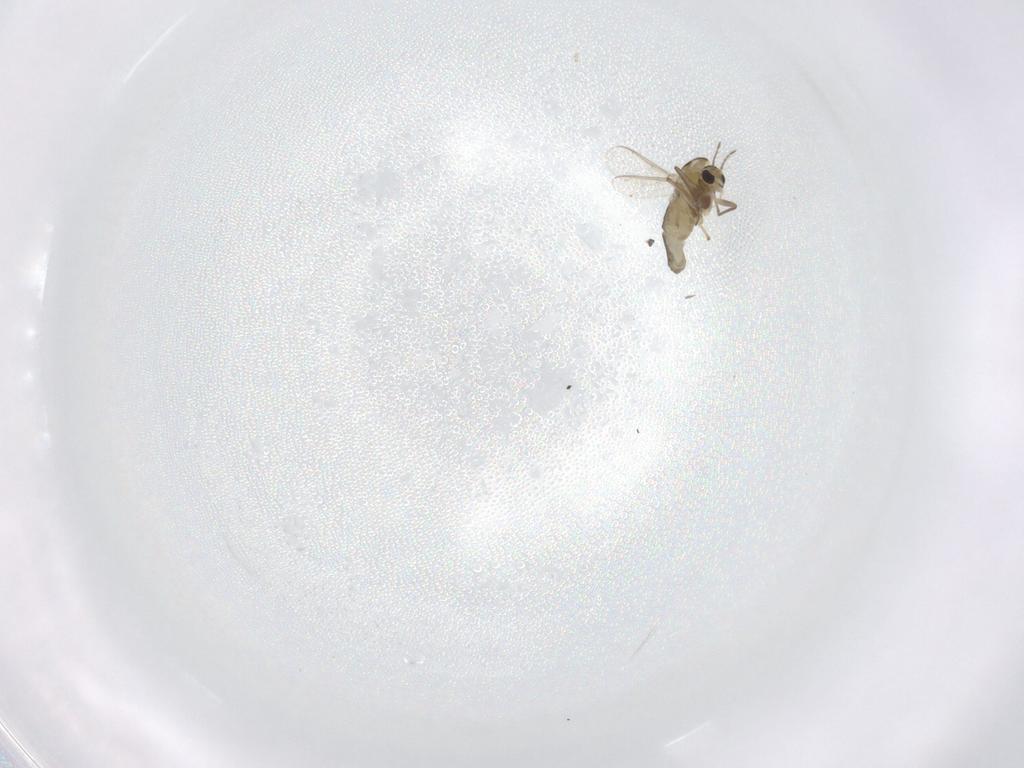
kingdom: Animalia
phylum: Arthropoda
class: Insecta
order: Diptera
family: Chironomidae
